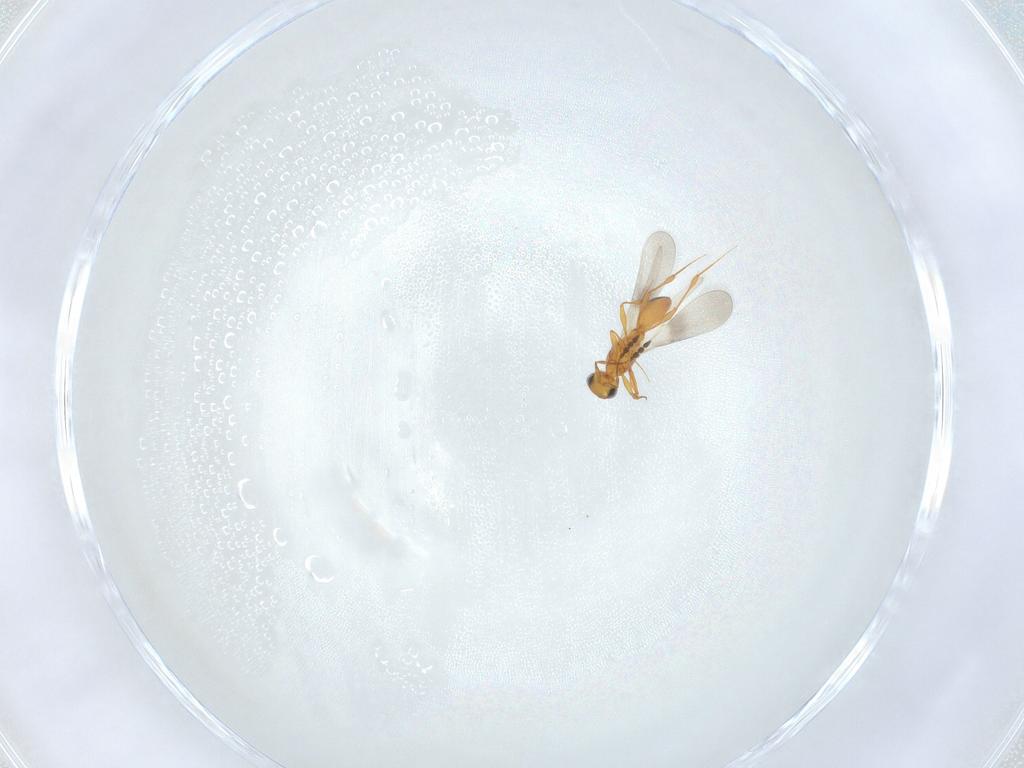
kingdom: Animalia
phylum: Arthropoda
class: Insecta
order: Hymenoptera
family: Platygastridae
